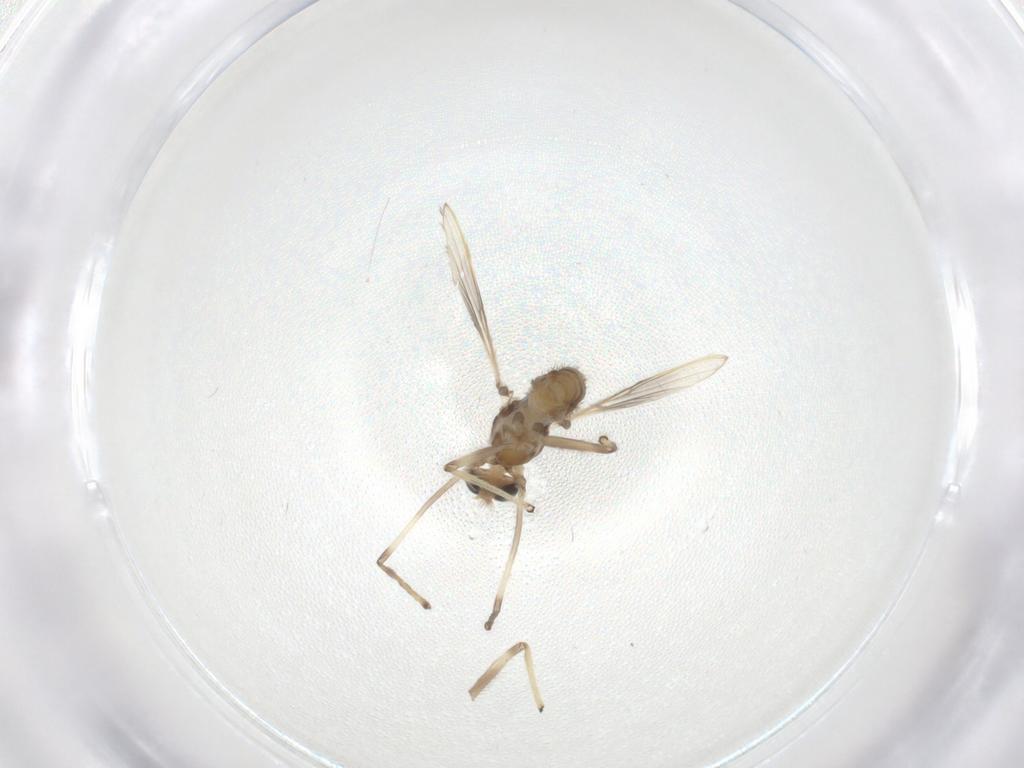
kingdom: Animalia
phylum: Arthropoda
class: Insecta
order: Diptera
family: Chironomidae
